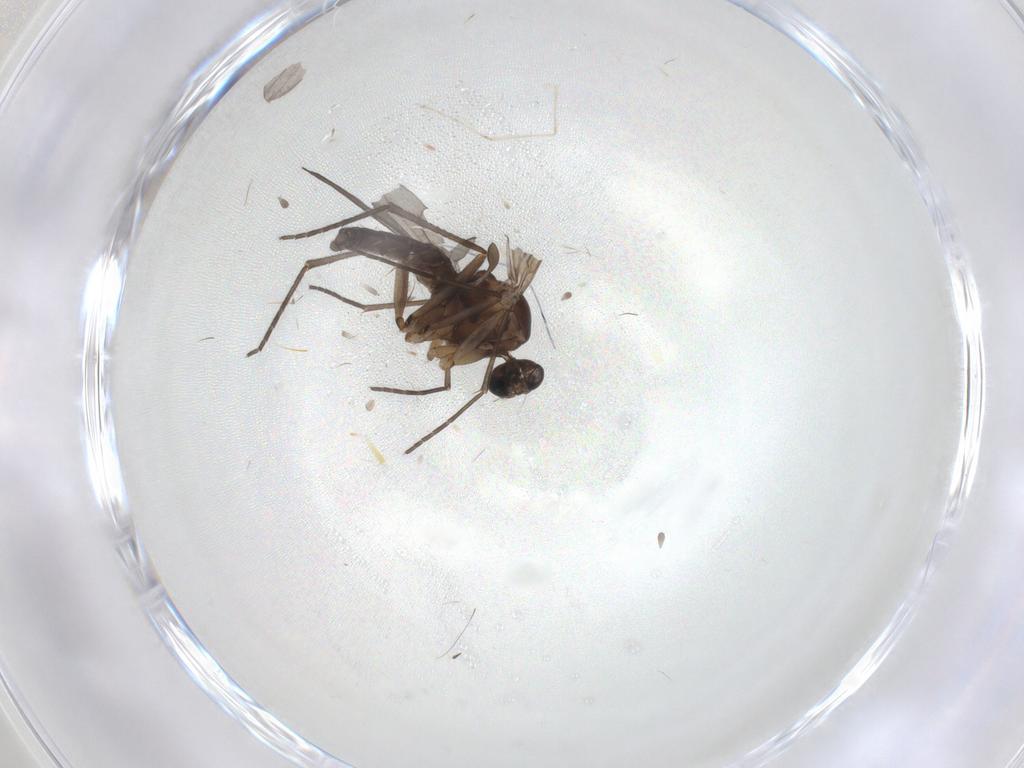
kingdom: Animalia
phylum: Arthropoda
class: Insecta
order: Diptera
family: Sciaridae
